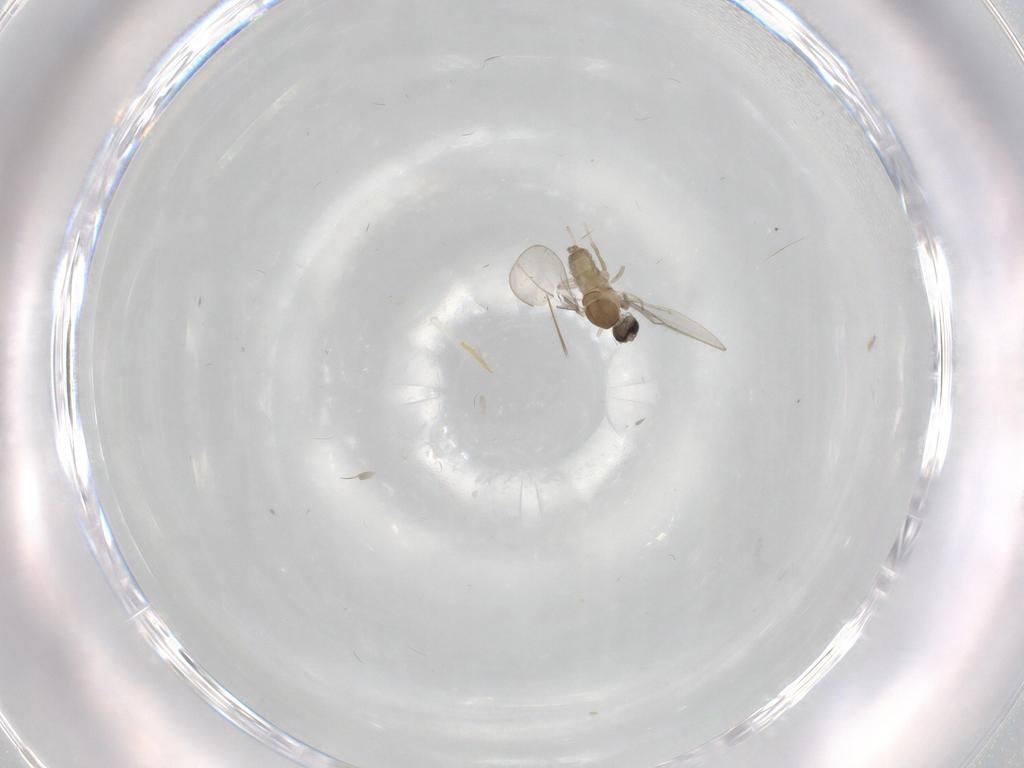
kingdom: Animalia
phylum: Arthropoda
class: Insecta
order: Diptera
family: Cecidomyiidae
